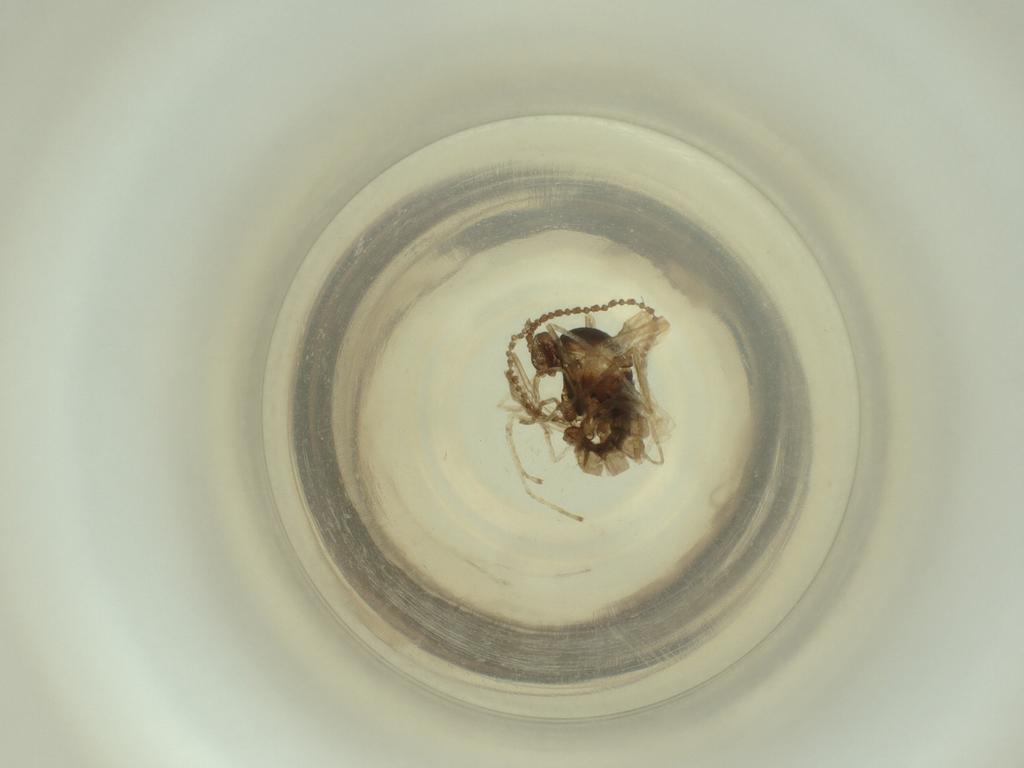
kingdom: Animalia
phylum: Arthropoda
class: Insecta
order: Diptera
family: Cecidomyiidae
